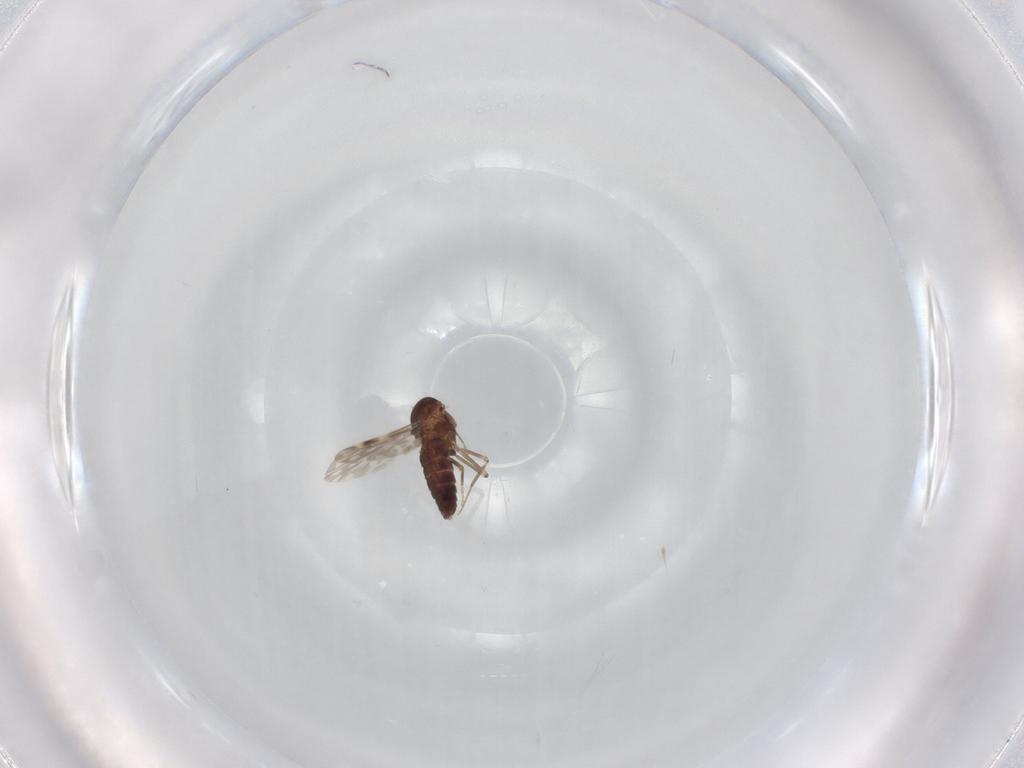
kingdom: Animalia
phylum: Arthropoda
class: Insecta
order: Diptera
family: Ceratopogonidae
